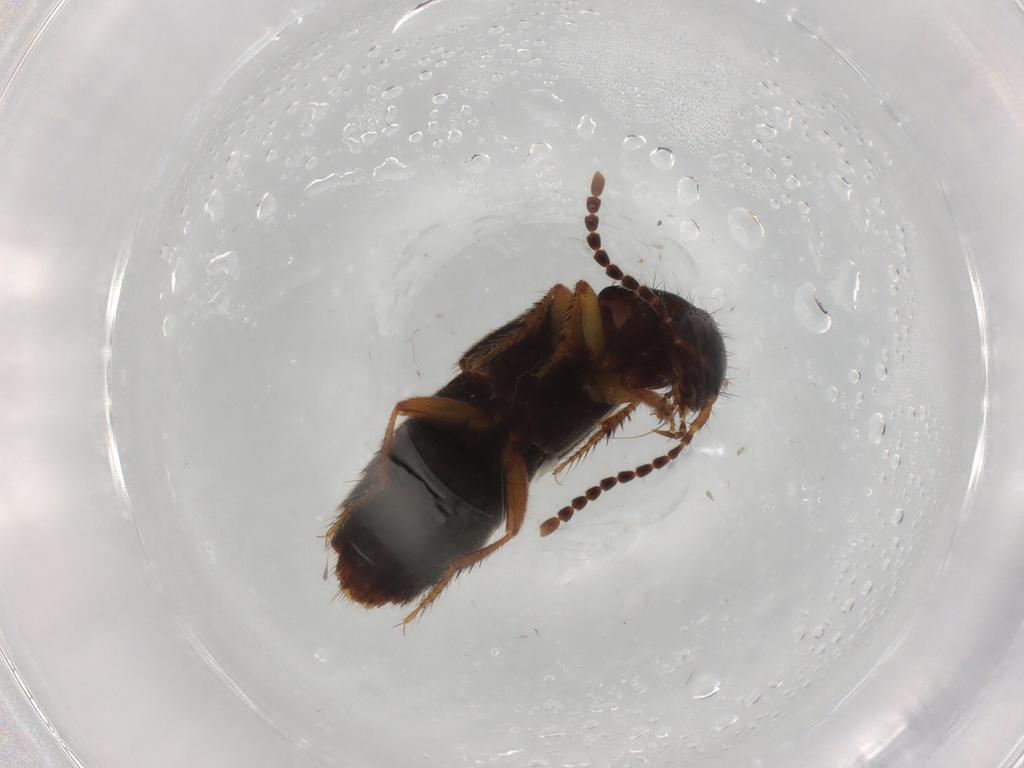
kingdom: Animalia
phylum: Arthropoda
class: Insecta
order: Coleoptera
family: Staphylinidae
